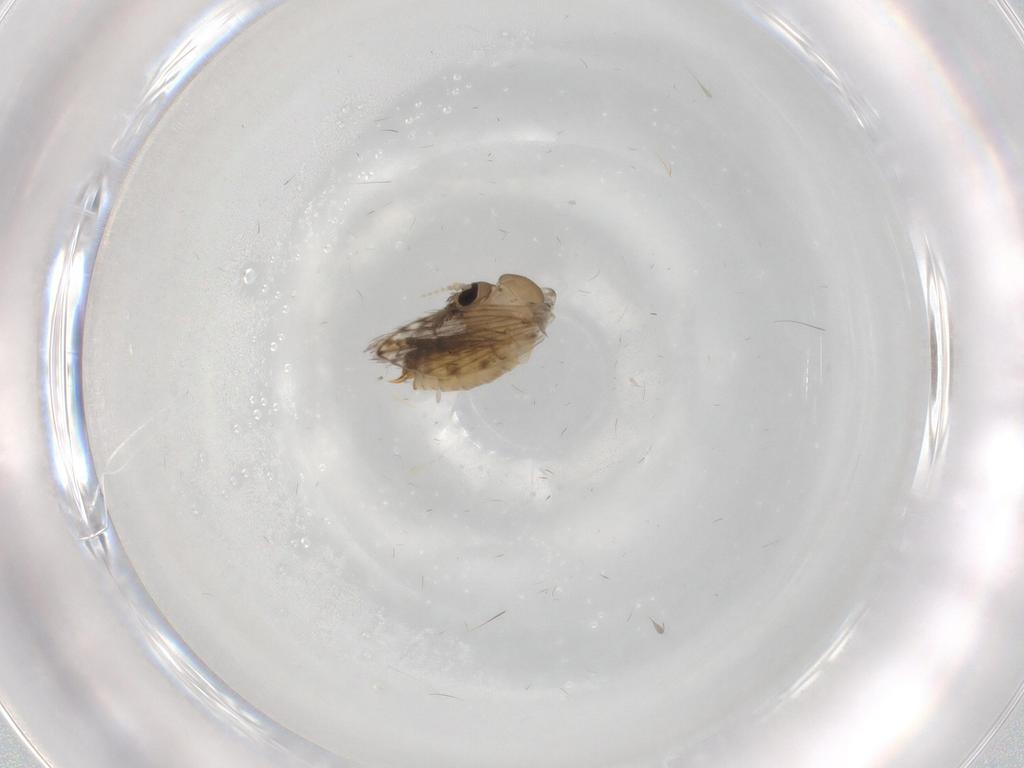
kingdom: Animalia
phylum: Arthropoda
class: Insecta
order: Diptera
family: Psychodidae
